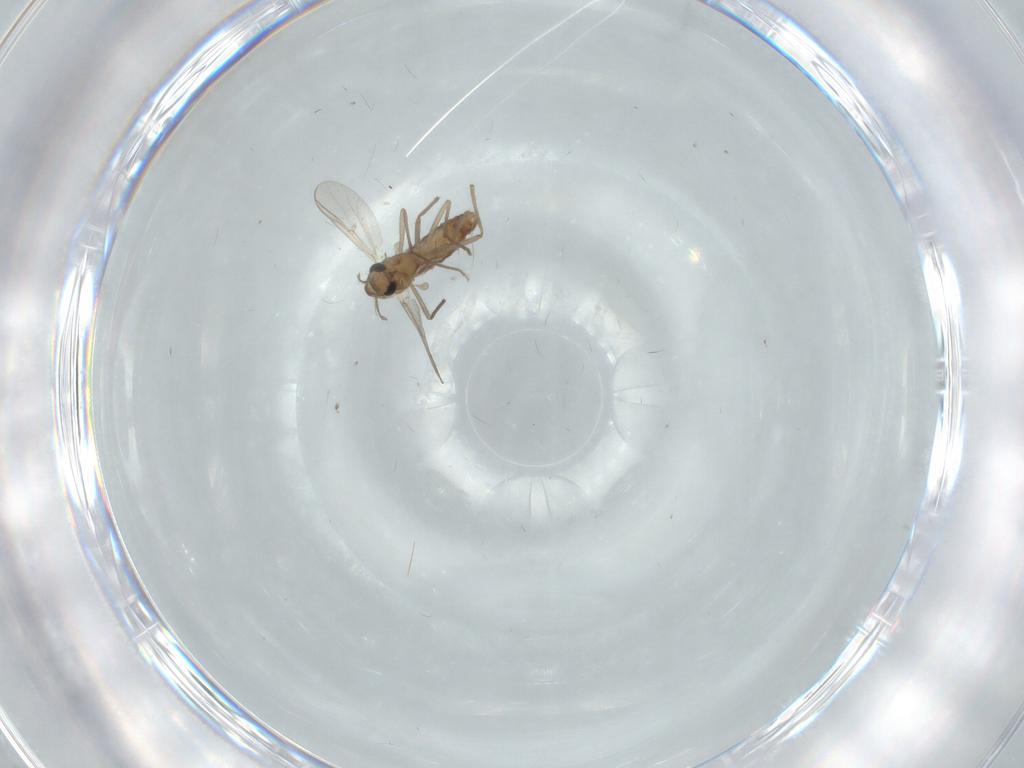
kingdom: Animalia
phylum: Arthropoda
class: Insecta
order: Diptera
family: Chironomidae
